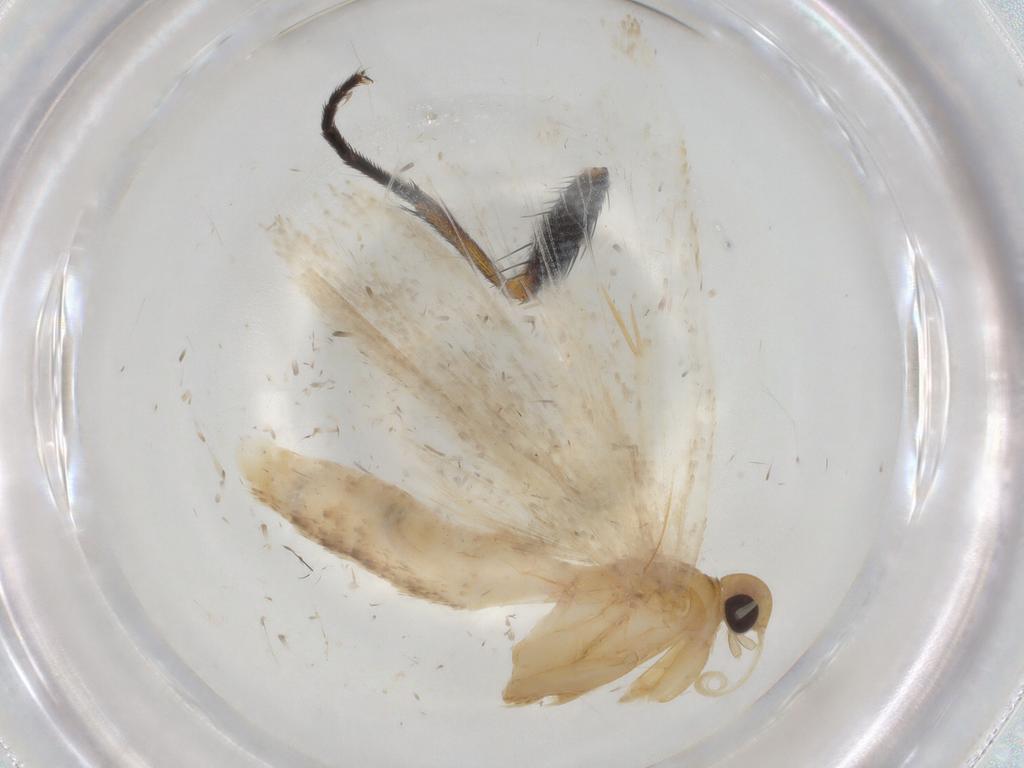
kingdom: Animalia
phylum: Arthropoda
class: Insecta
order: Lepidoptera
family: Gelechiidae
